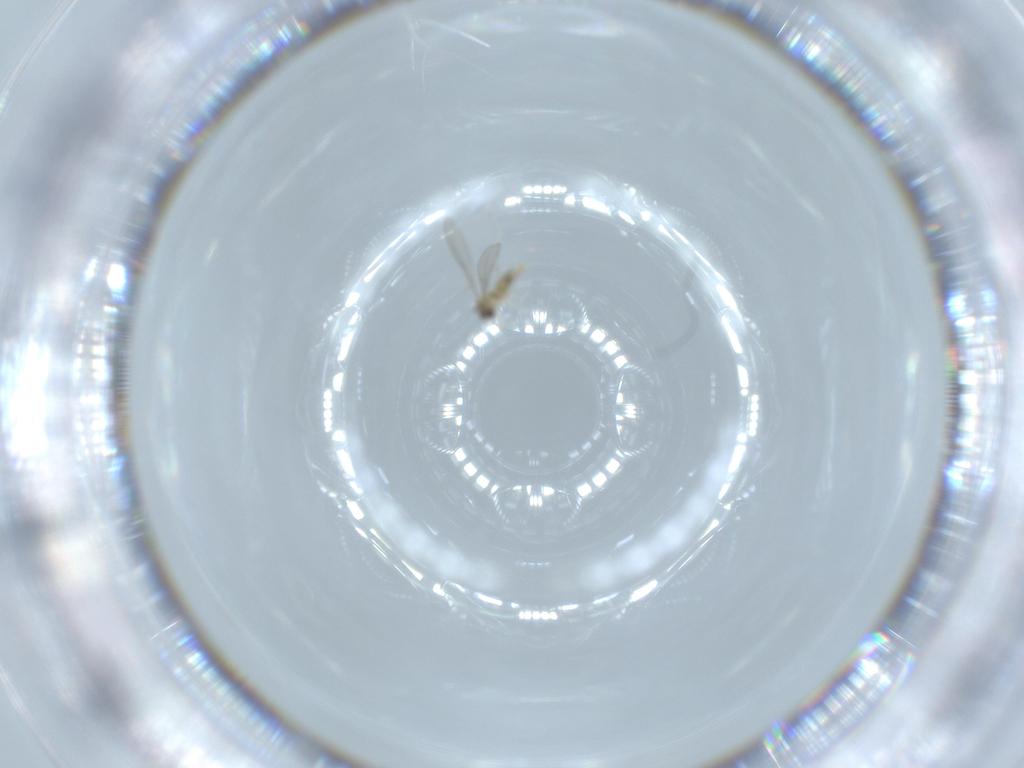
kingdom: Animalia
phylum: Arthropoda
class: Insecta
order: Diptera
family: Cecidomyiidae
